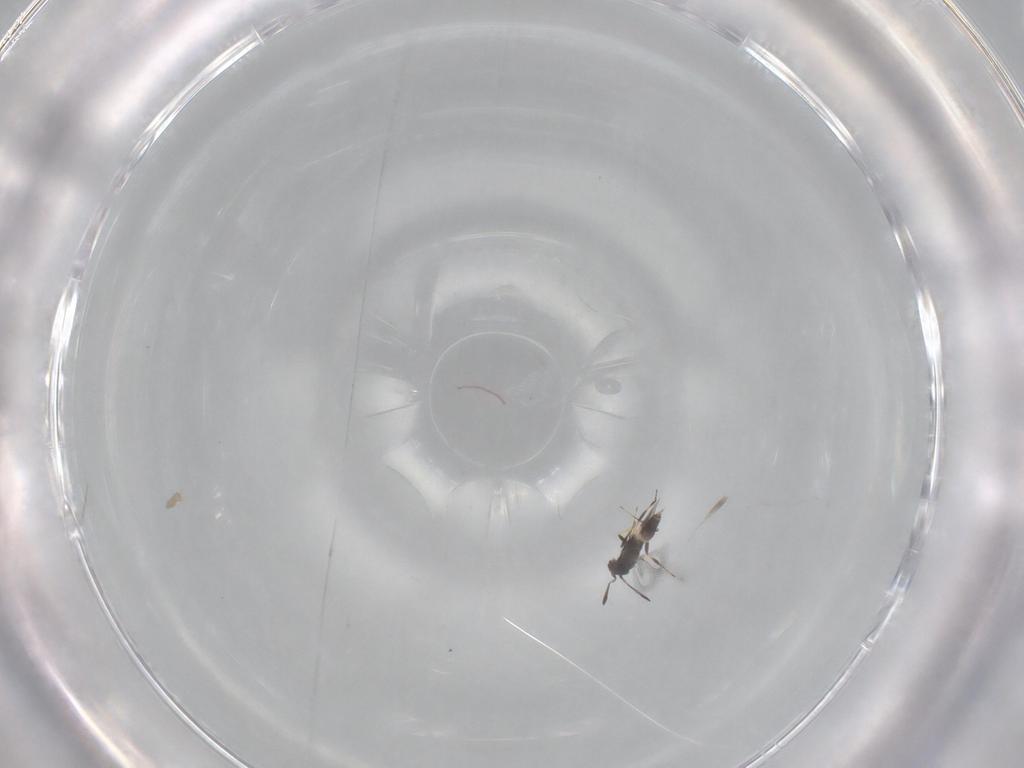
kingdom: Animalia
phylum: Arthropoda
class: Insecta
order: Hymenoptera
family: Mymaridae
